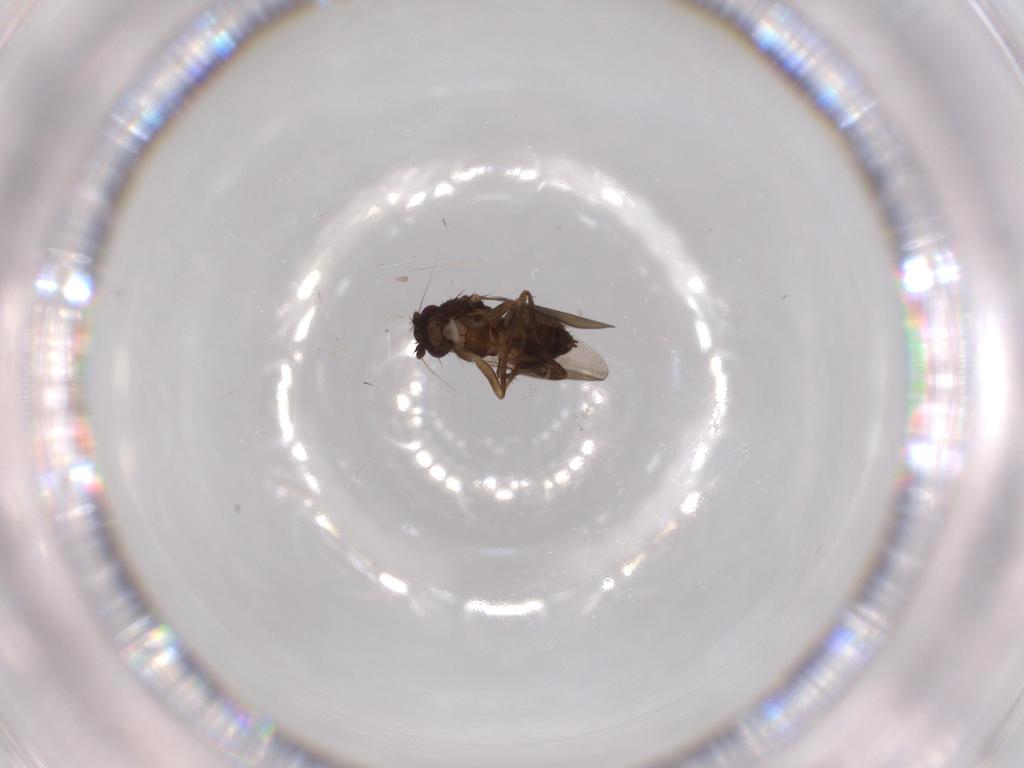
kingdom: Animalia
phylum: Arthropoda
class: Insecta
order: Diptera
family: Sphaeroceridae
